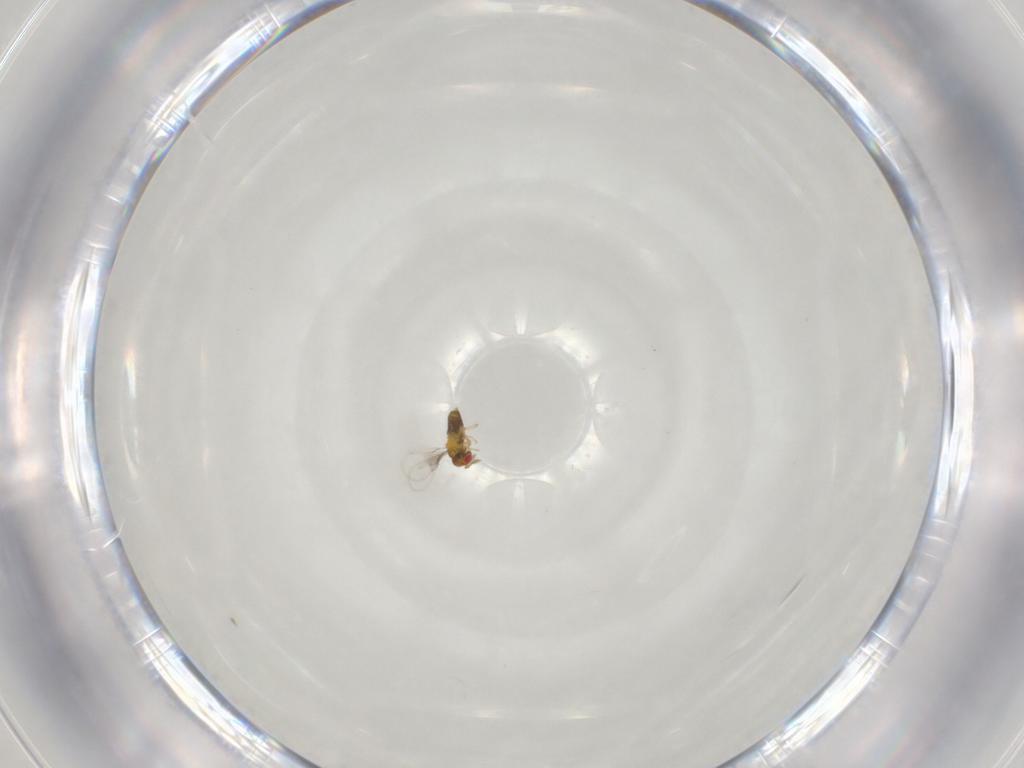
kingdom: Animalia
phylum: Arthropoda
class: Insecta
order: Hymenoptera
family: Trichogrammatidae
